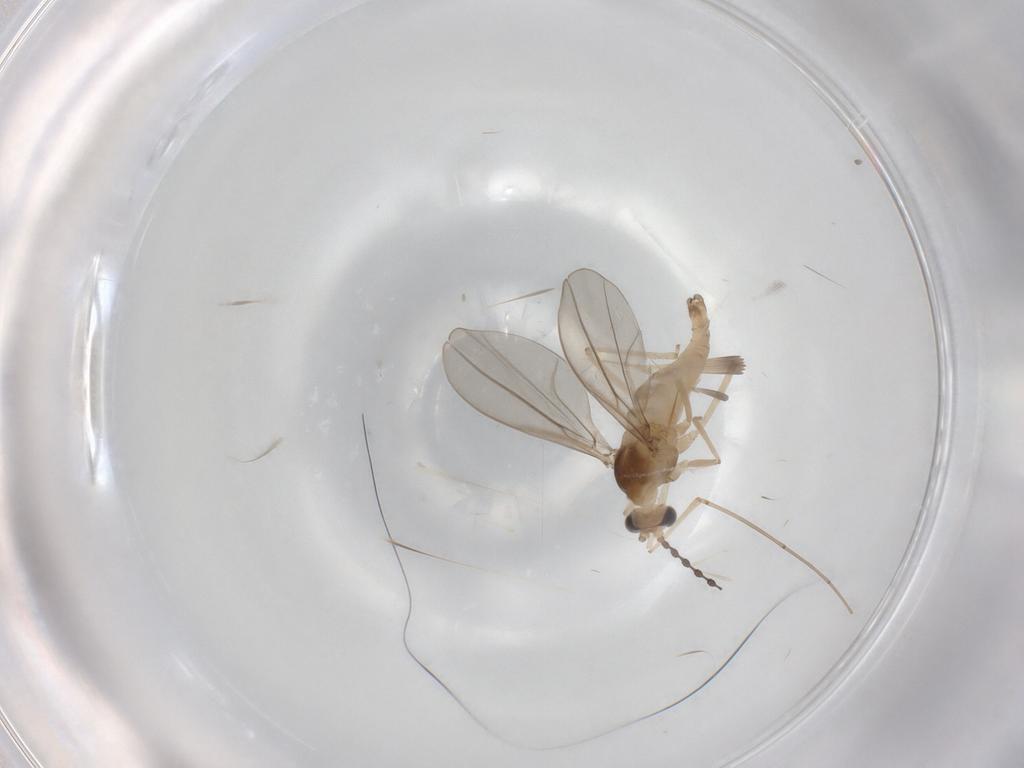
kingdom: Animalia
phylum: Arthropoda
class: Insecta
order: Diptera
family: Cecidomyiidae
